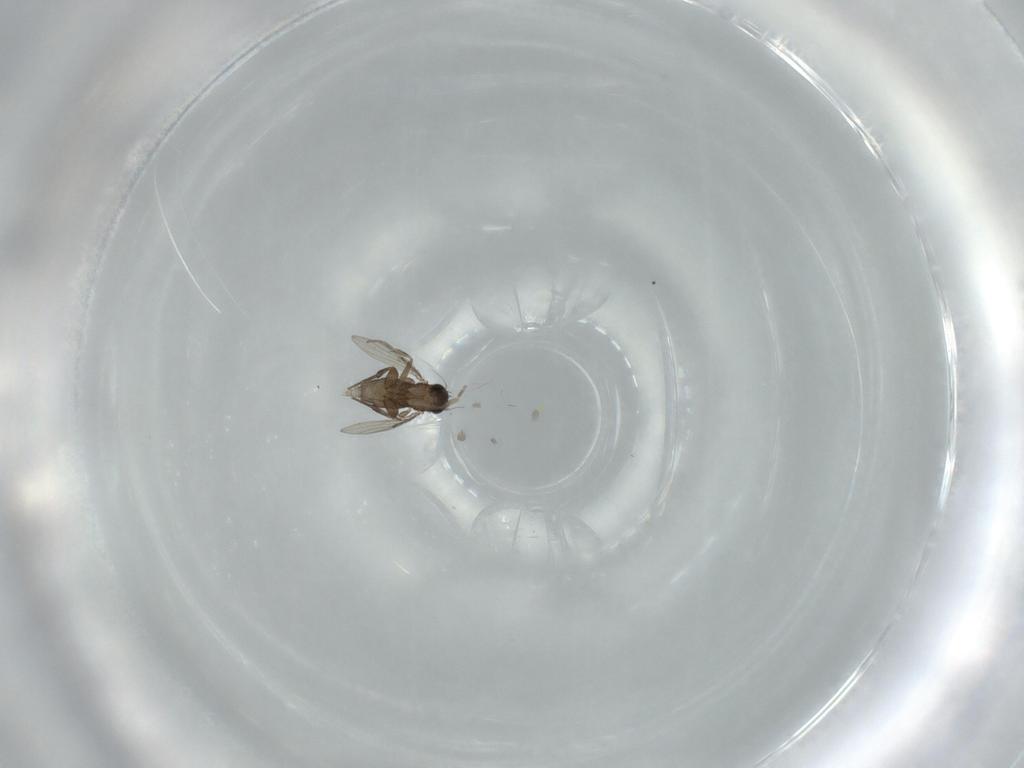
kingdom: Animalia
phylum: Arthropoda
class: Insecta
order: Diptera
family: Phoridae
